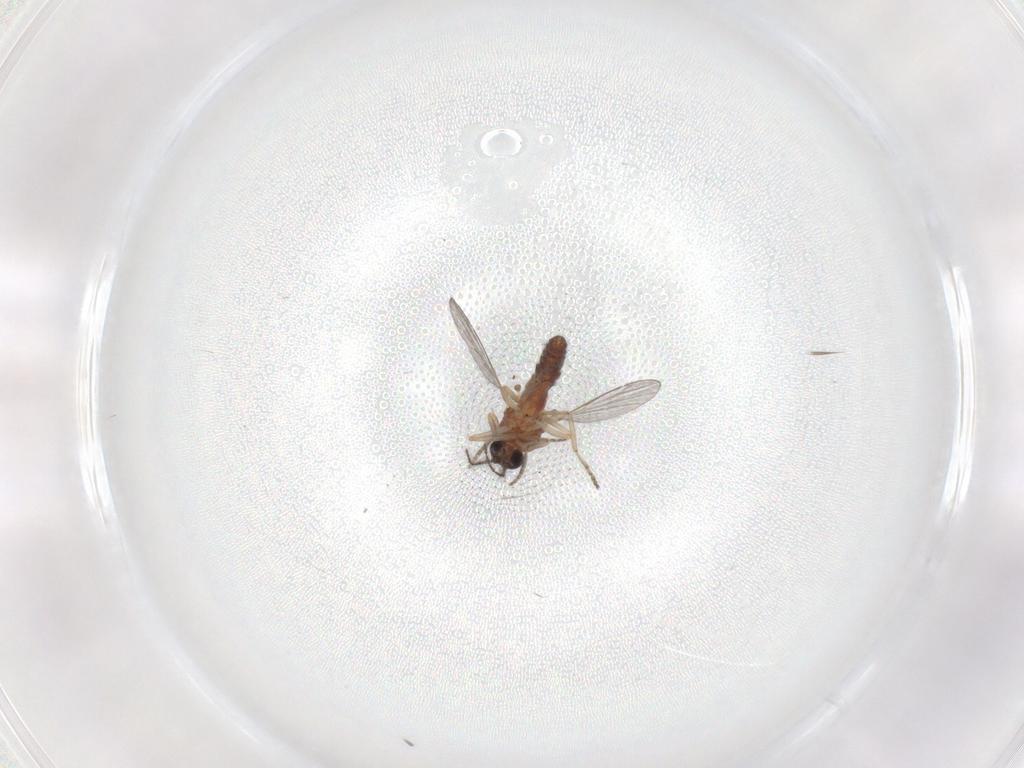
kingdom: Animalia
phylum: Arthropoda
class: Insecta
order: Diptera
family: Ceratopogonidae
